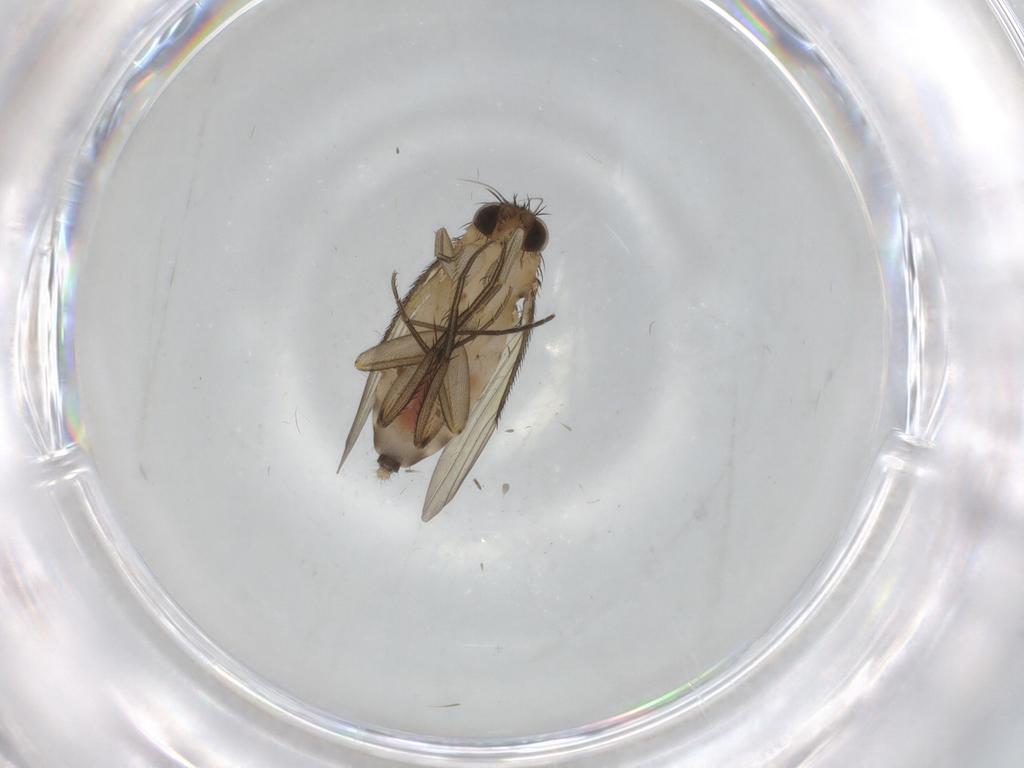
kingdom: Animalia
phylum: Arthropoda
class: Insecta
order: Diptera
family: Phoridae
